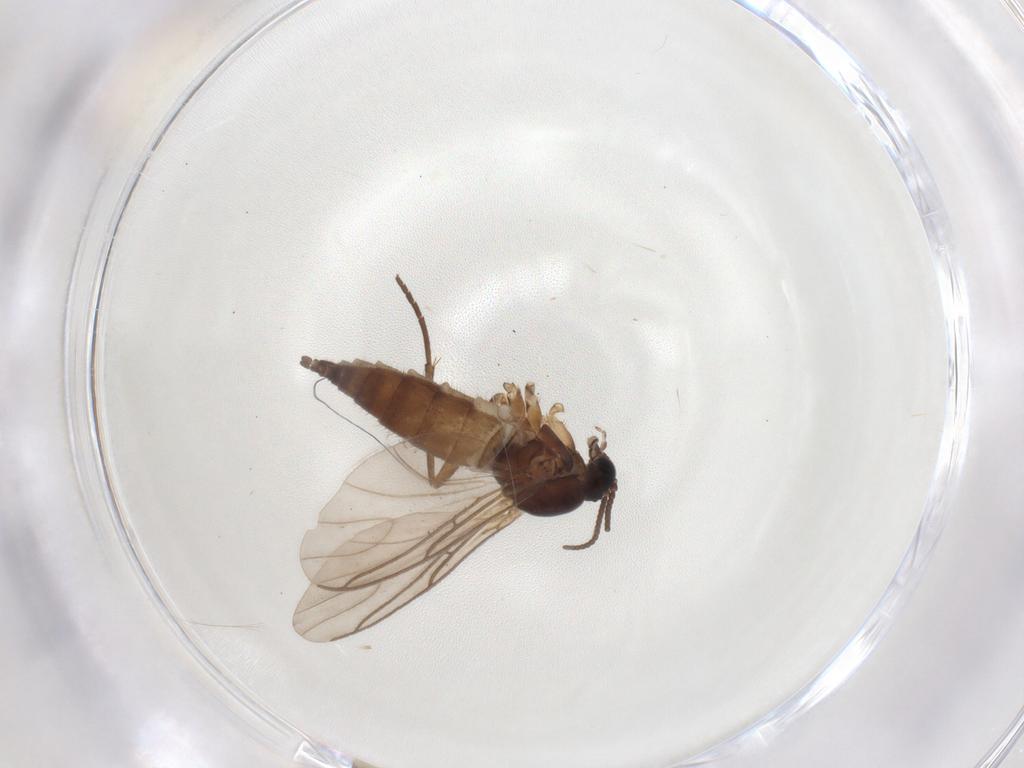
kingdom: Animalia
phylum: Arthropoda
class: Insecta
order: Diptera
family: Sciaridae
